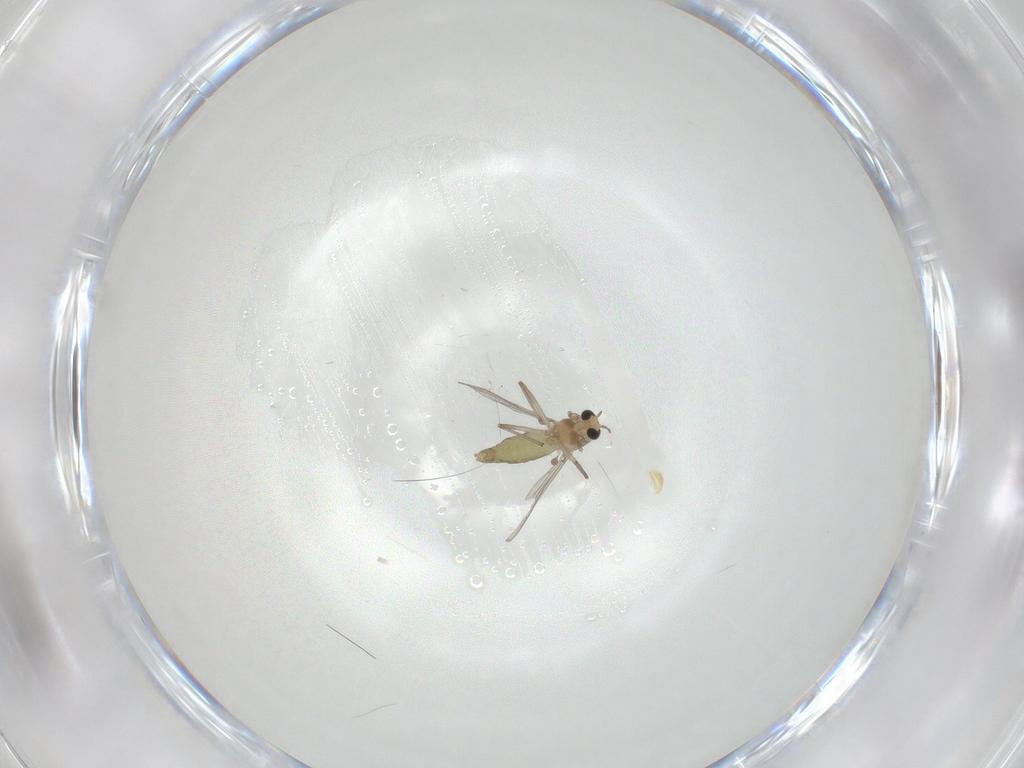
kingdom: Animalia
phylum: Arthropoda
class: Insecta
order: Diptera
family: Chironomidae
